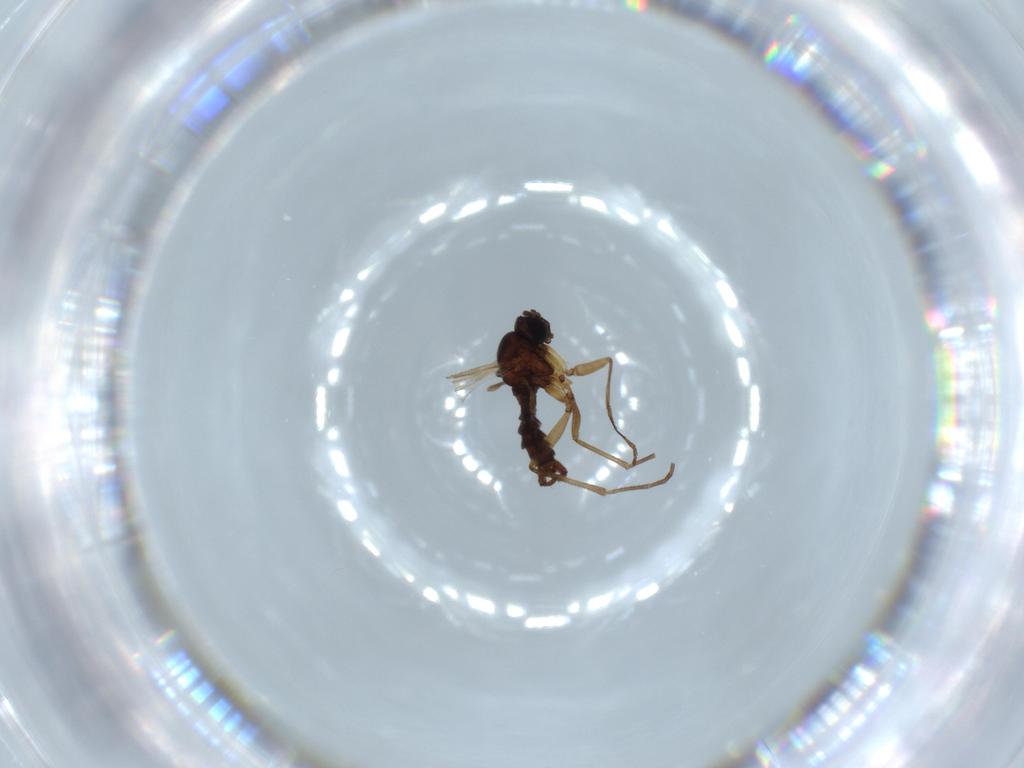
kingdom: Animalia
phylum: Arthropoda
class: Insecta
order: Diptera
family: Sciaridae
